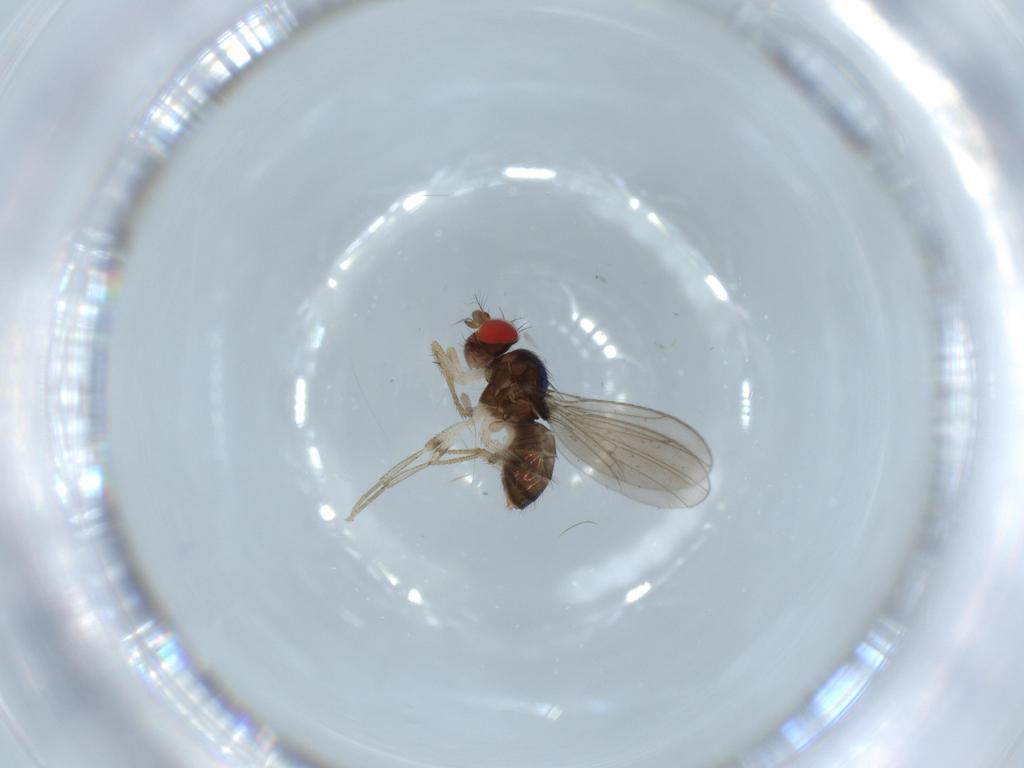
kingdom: Animalia
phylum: Arthropoda
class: Insecta
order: Diptera
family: Drosophilidae
